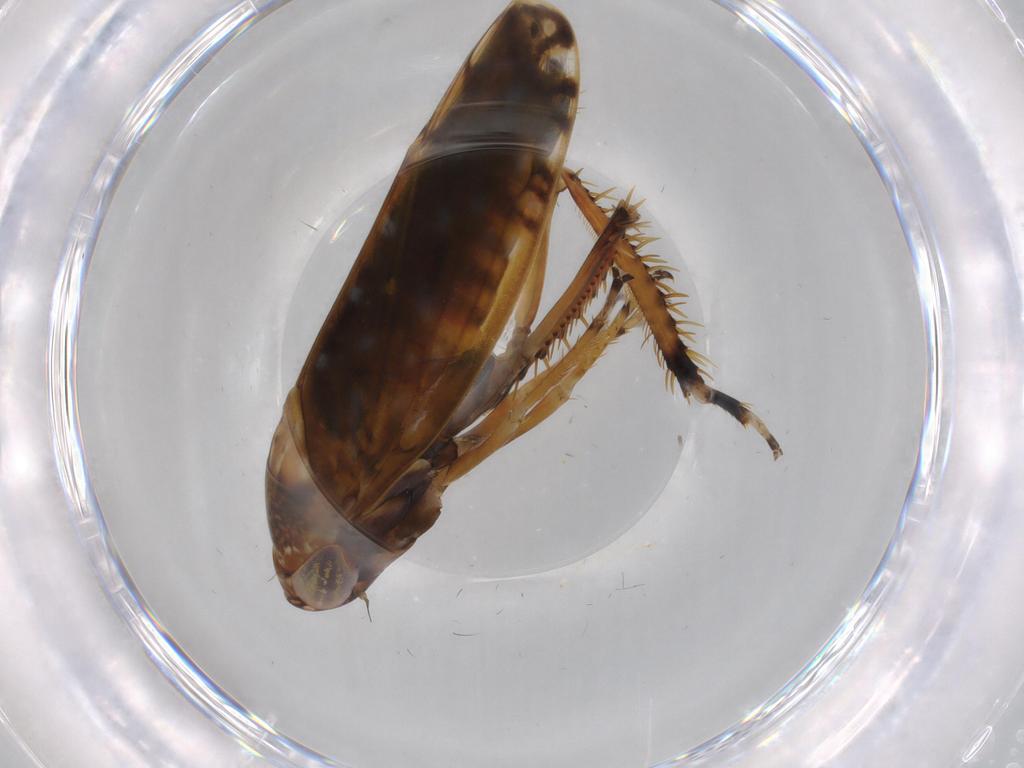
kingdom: Animalia
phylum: Arthropoda
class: Insecta
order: Hemiptera
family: Cicadellidae
